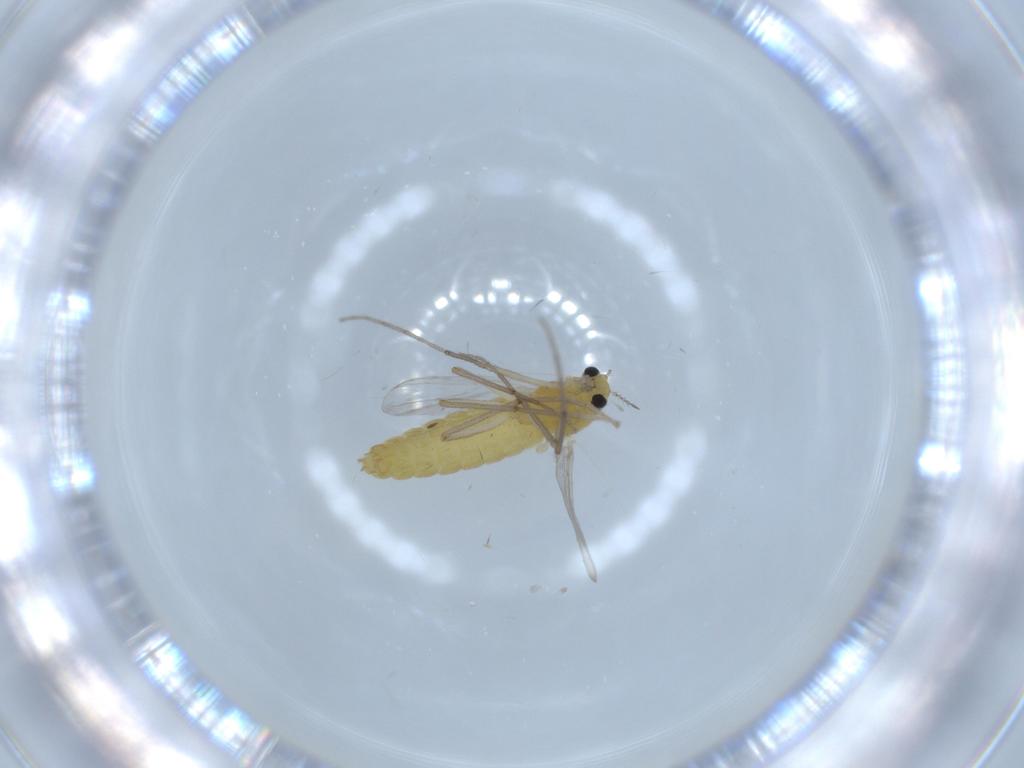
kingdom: Animalia
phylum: Arthropoda
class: Insecta
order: Diptera
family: Chironomidae
